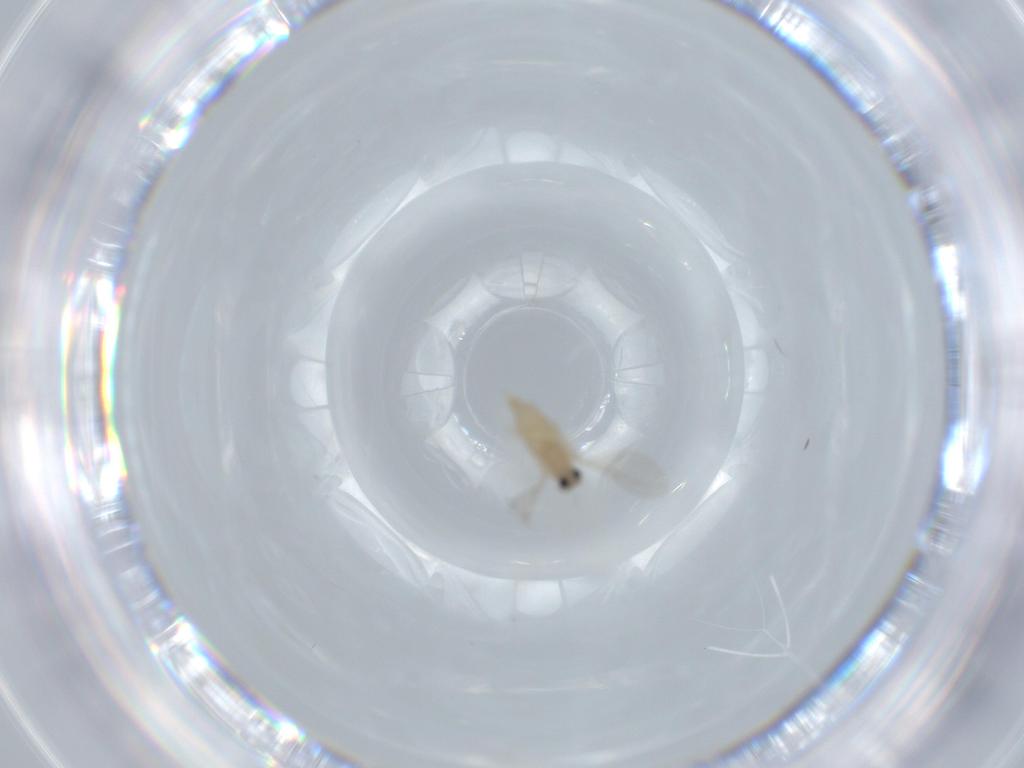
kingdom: Animalia
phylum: Arthropoda
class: Insecta
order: Diptera
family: Cecidomyiidae
